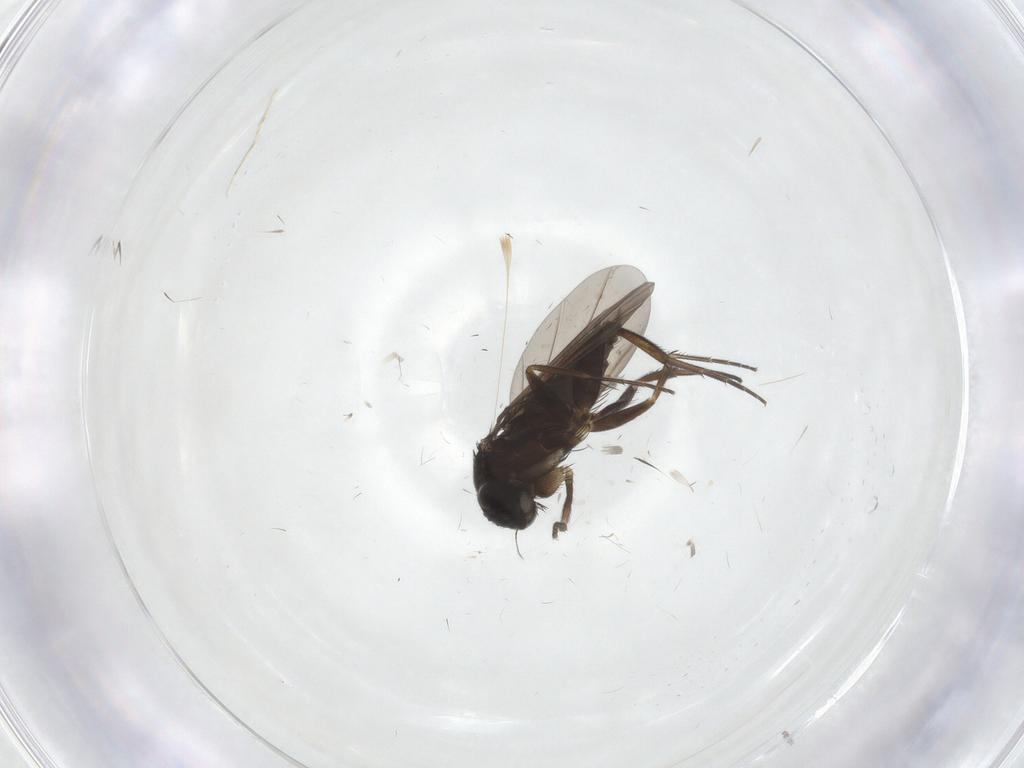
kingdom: Animalia
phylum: Arthropoda
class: Insecta
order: Diptera
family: Phoridae
